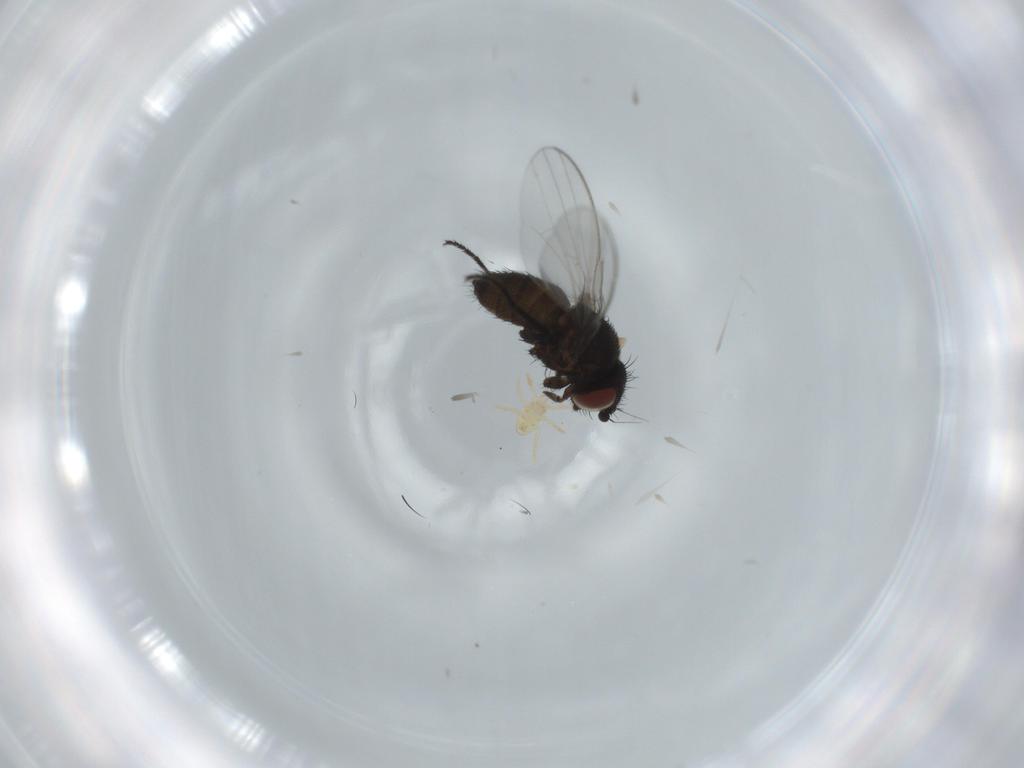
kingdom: Animalia
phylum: Arthropoda
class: Insecta
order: Diptera
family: Milichiidae
